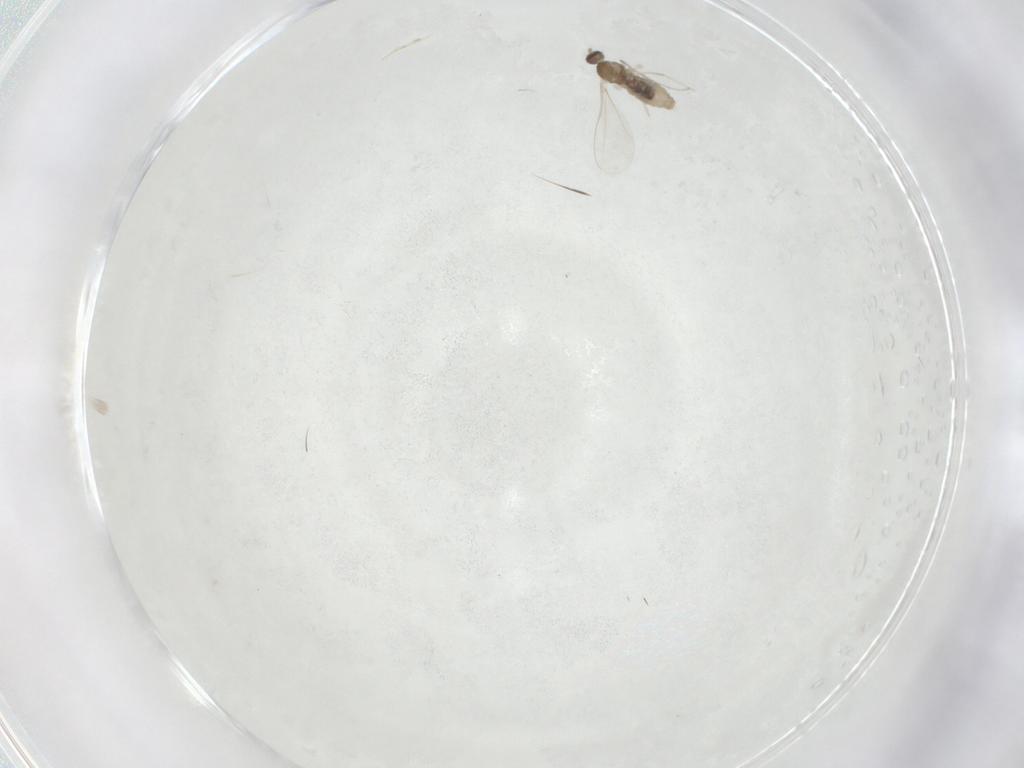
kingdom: Animalia
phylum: Arthropoda
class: Insecta
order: Diptera
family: Cecidomyiidae
